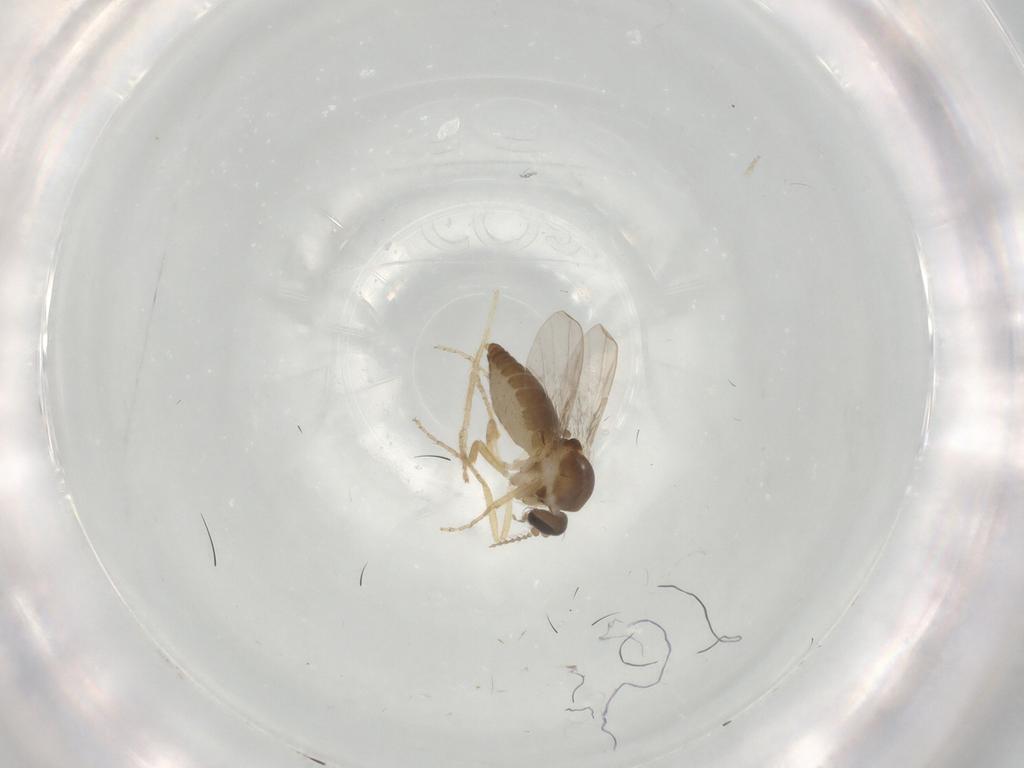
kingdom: Animalia
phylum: Arthropoda
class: Insecta
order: Diptera
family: Ceratopogonidae
